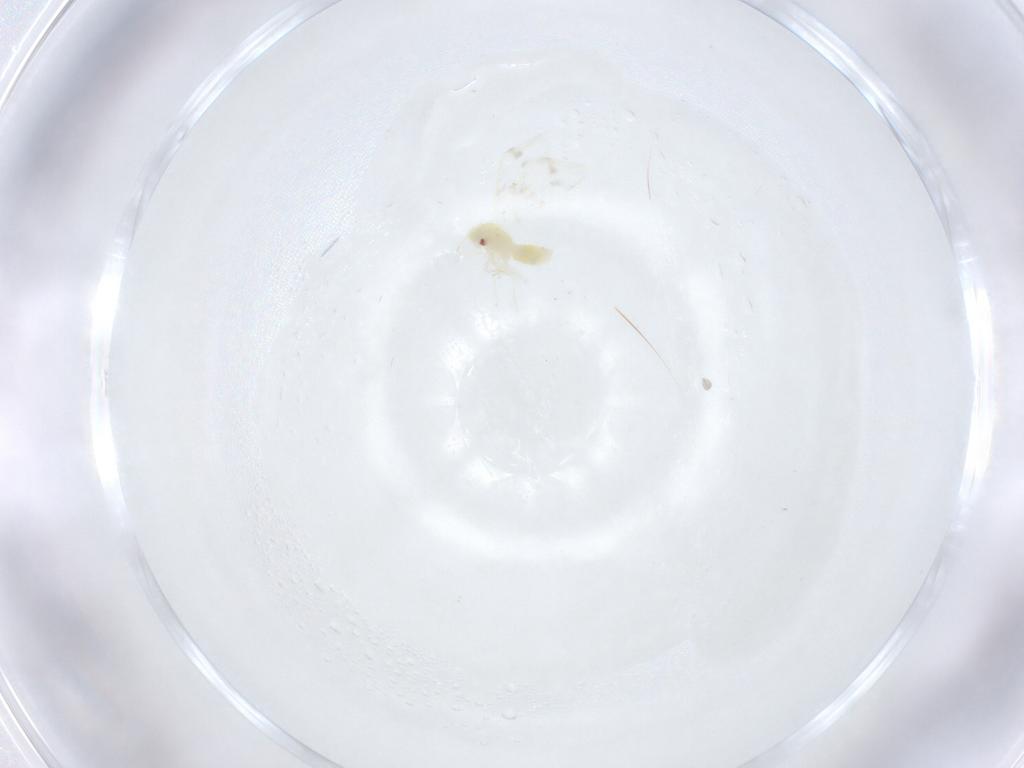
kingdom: Animalia
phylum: Arthropoda
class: Insecta
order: Hemiptera
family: Aleyrodidae
